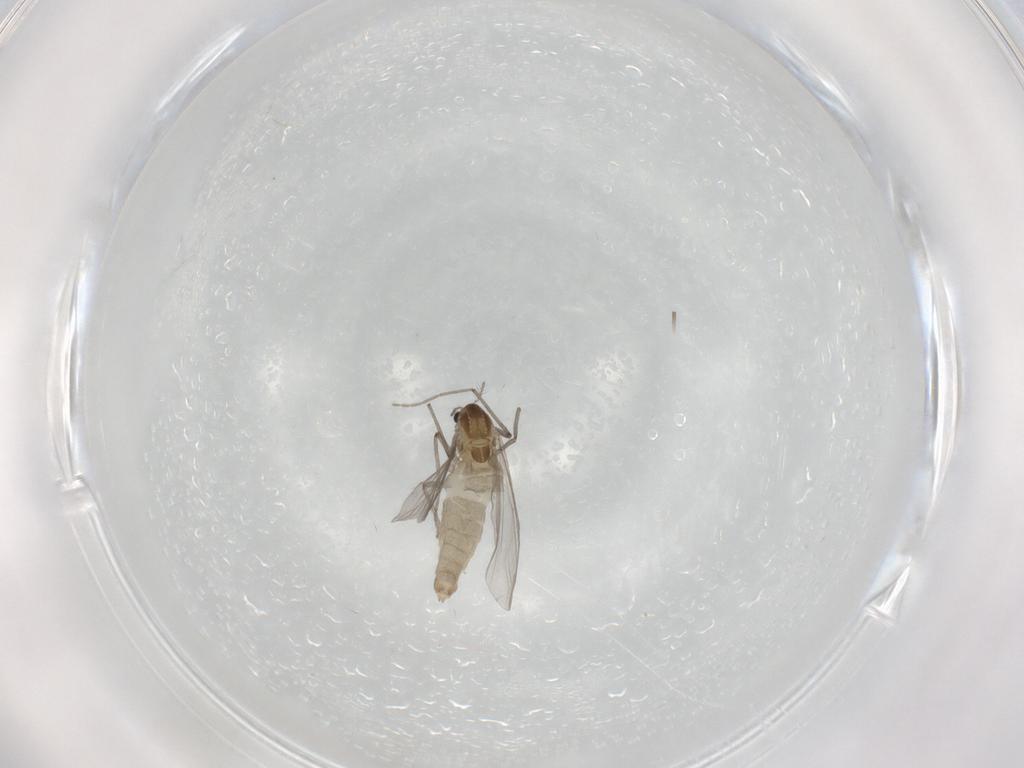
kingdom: Animalia
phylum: Arthropoda
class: Insecta
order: Diptera
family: Chironomidae
